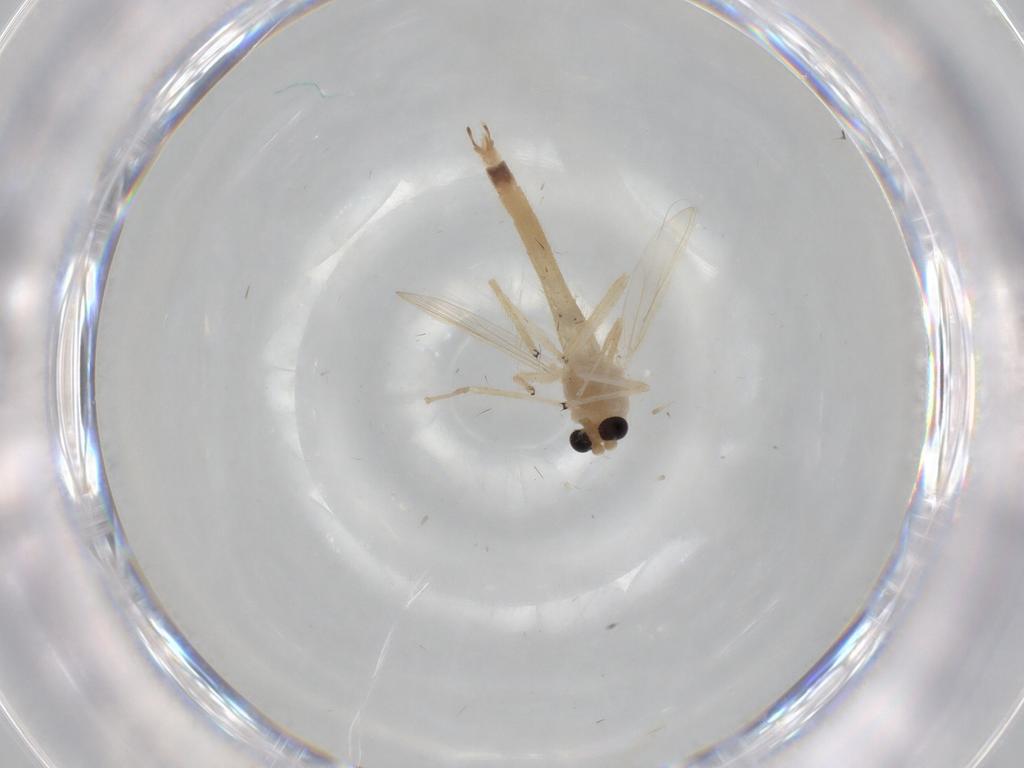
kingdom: Animalia
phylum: Arthropoda
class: Insecta
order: Diptera
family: Chironomidae
